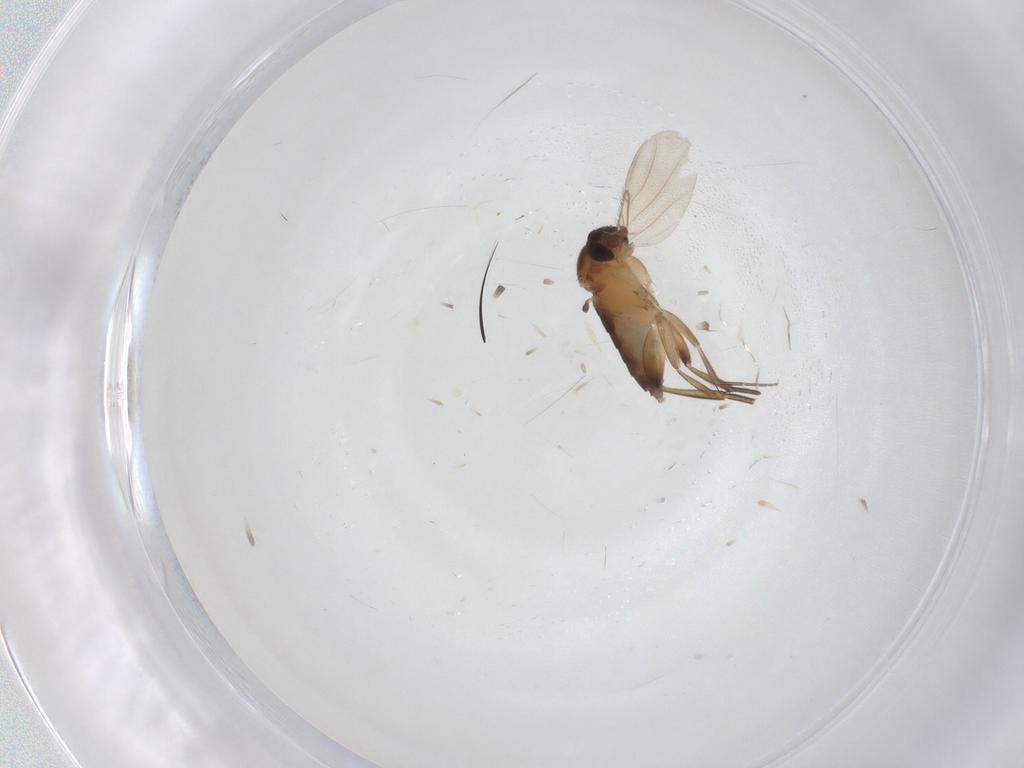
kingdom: Animalia
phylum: Arthropoda
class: Insecta
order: Diptera
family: Phoridae
